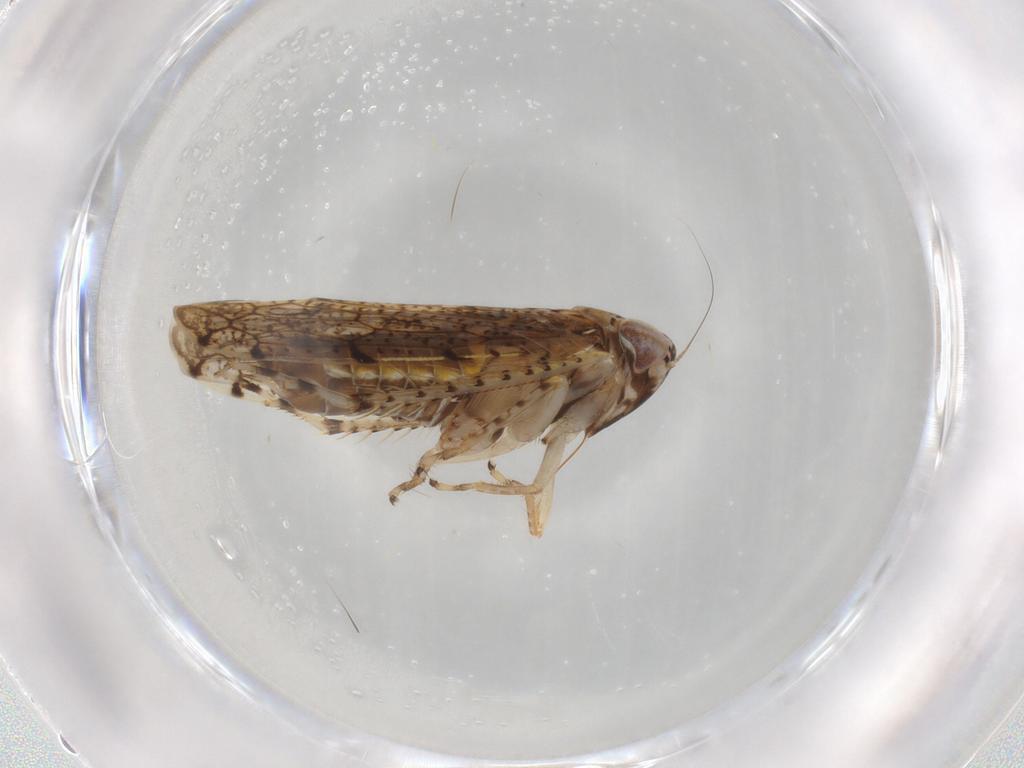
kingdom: Animalia
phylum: Arthropoda
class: Insecta
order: Hemiptera
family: Cicadellidae
